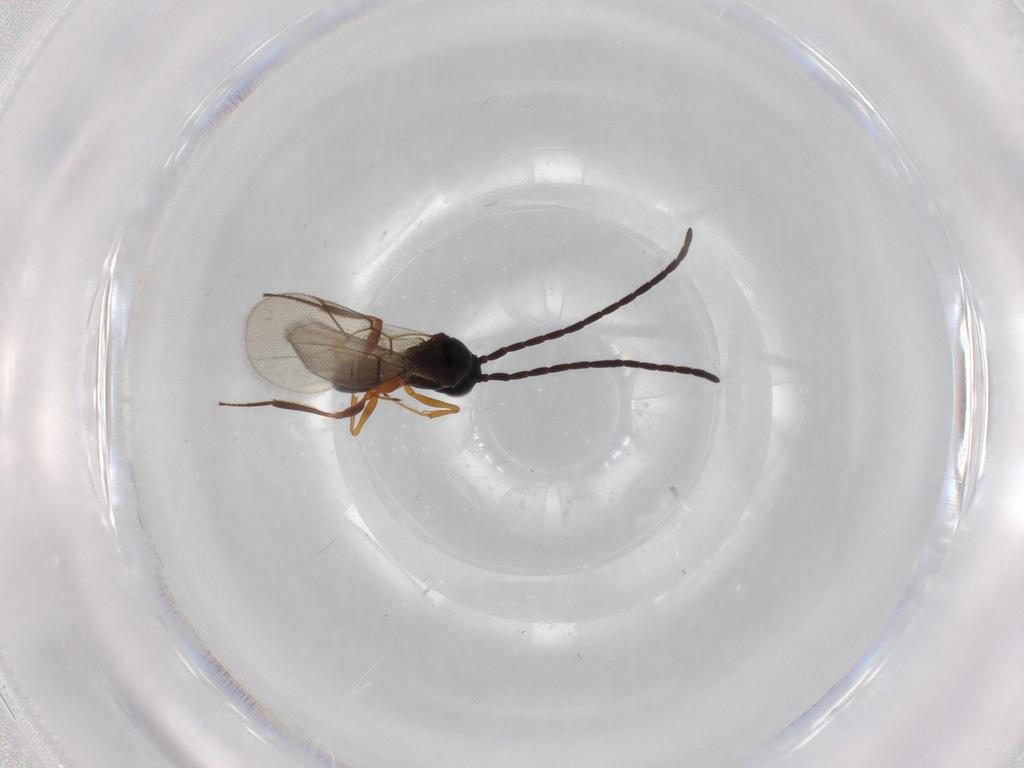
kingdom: Animalia
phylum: Arthropoda
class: Insecta
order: Hymenoptera
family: Figitidae
